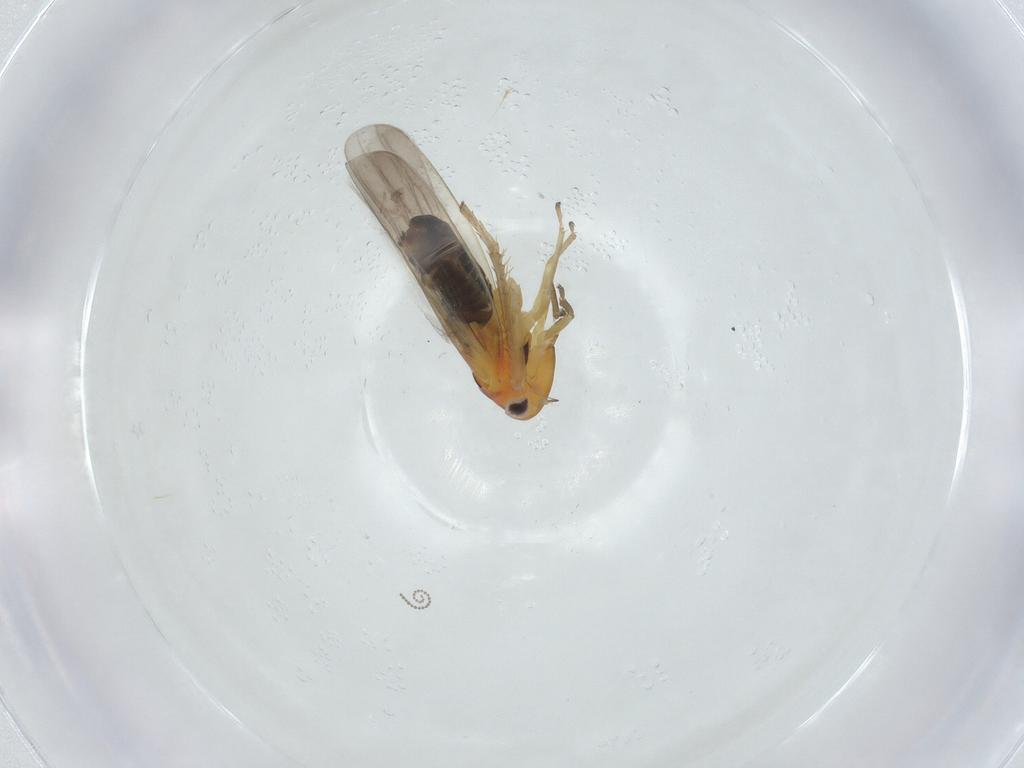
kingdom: Animalia
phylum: Arthropoda
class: Insecta
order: Hemiptera
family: Cicadellidae
